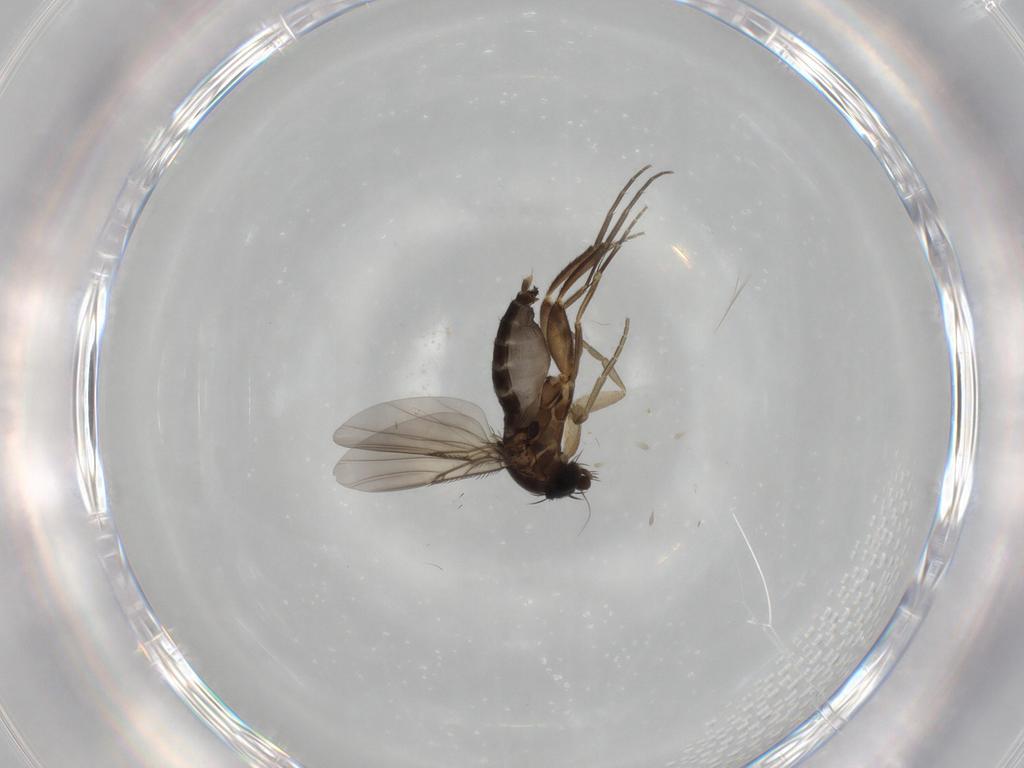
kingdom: Animalia
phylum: Arthropoda
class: Insecta
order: Diptera
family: Phoridae
